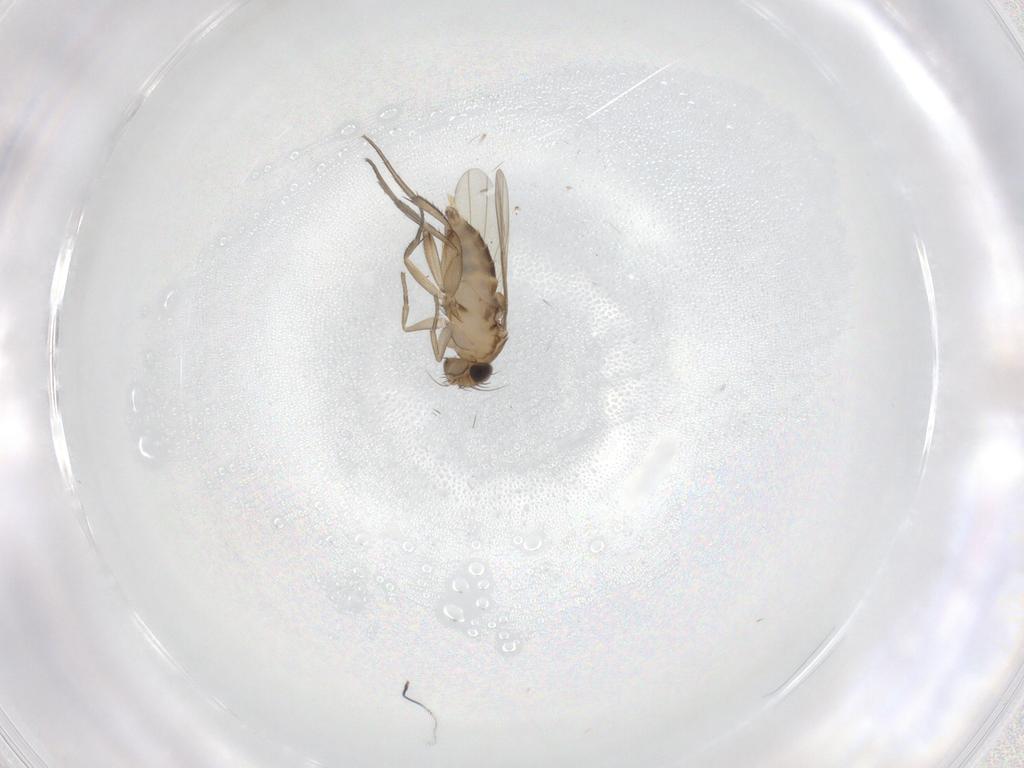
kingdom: Animalia
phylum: Arthropoda
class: Insecta
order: Diptera
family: Phoridae
